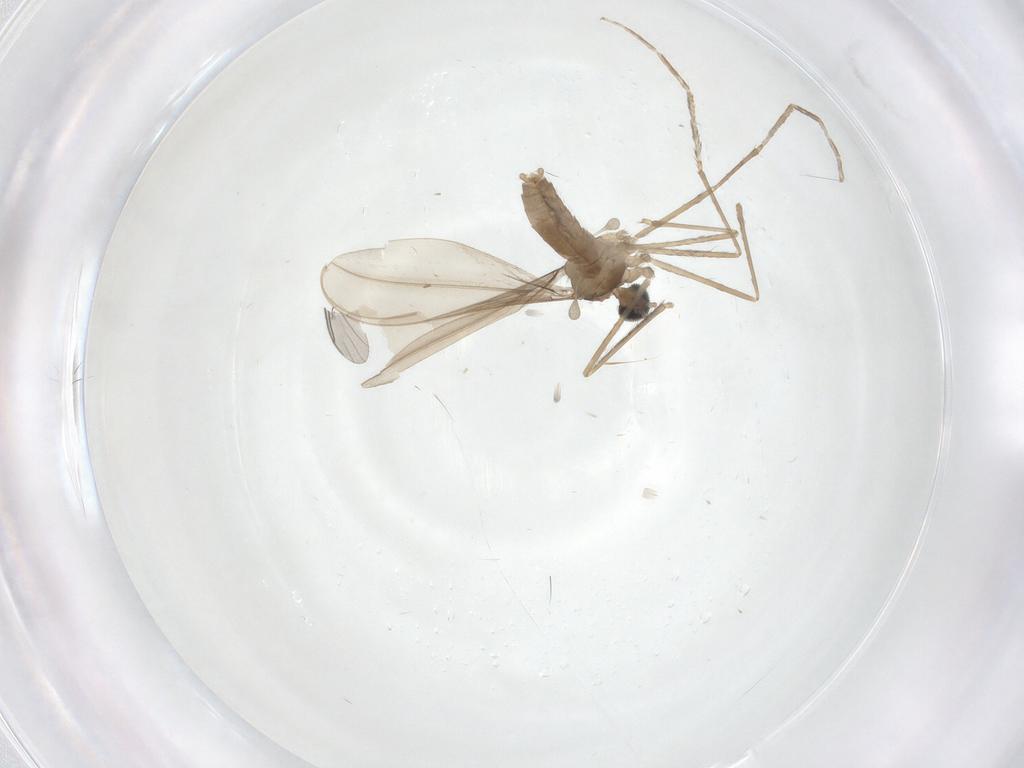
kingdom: Animalia
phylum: Arthropoda
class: Insecta
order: Diptera
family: Cecidomyiidae
